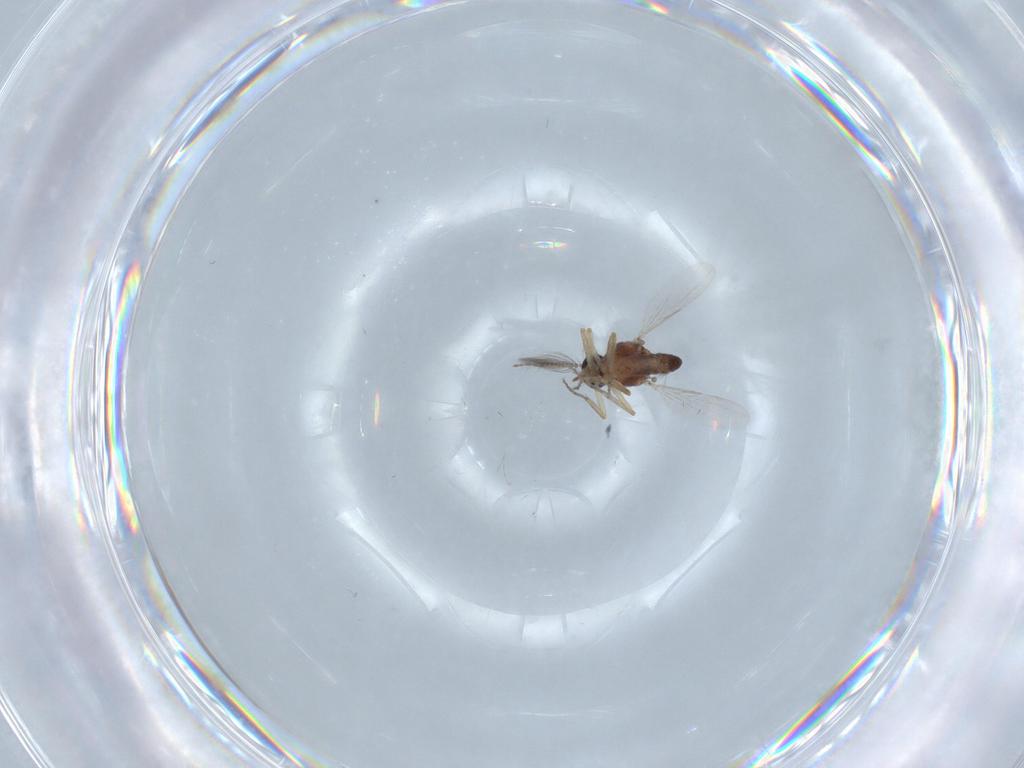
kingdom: Animalia
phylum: Arthropoda
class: Insecta
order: Diptera
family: Ceratopogonidae
